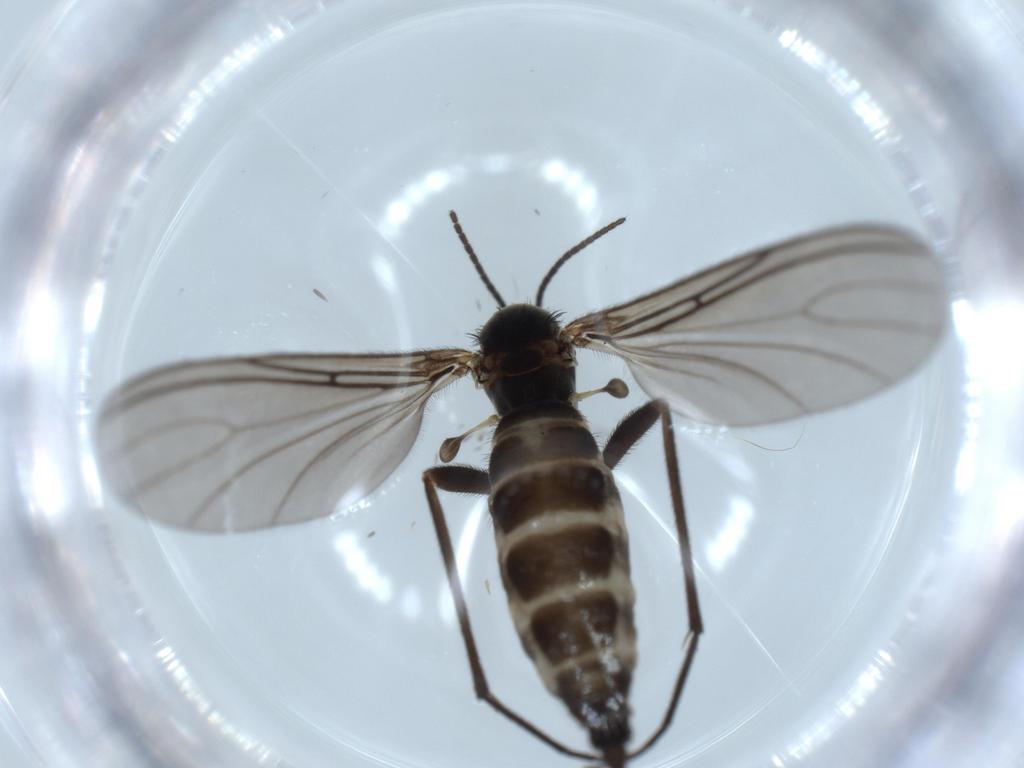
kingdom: Animalia
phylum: Arthropoda
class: Insecta
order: Diptera
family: Sciaridae
